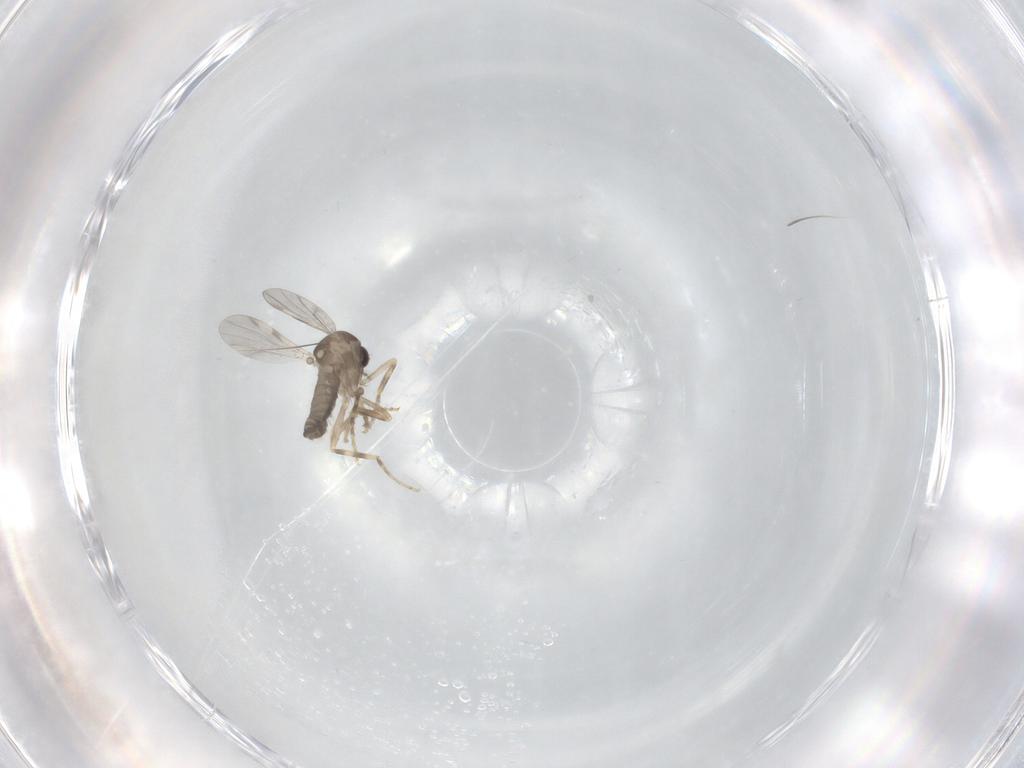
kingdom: Animalia
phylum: Arthropoda
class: Insecta
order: Diptera
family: Ceratopogonidae
